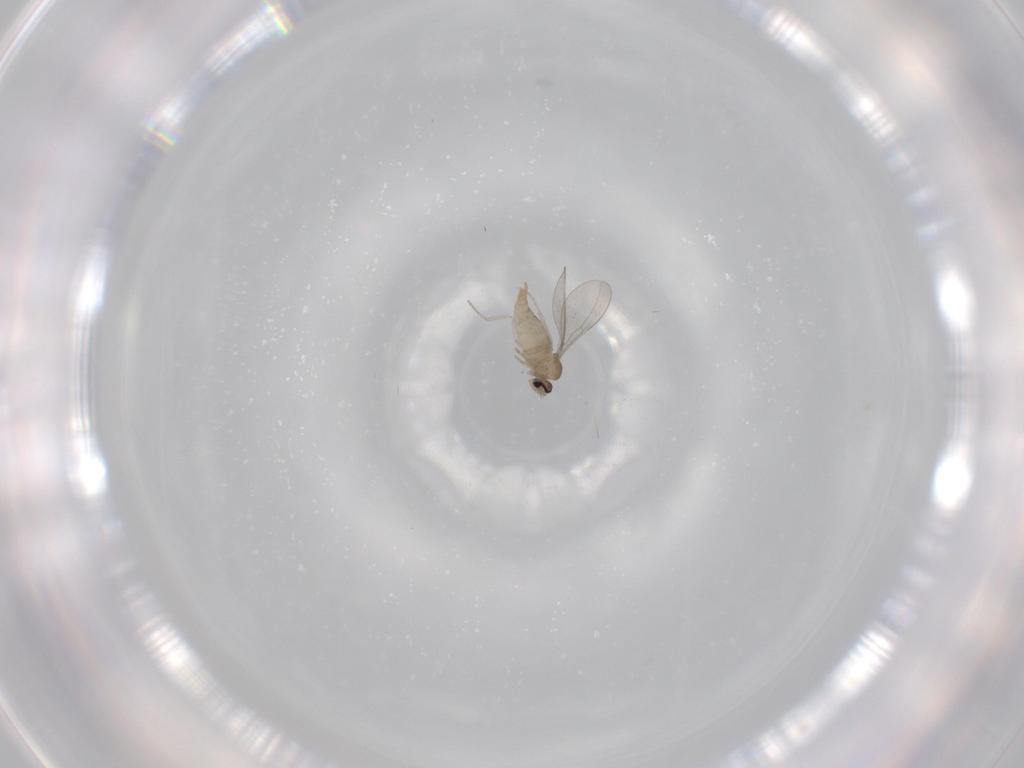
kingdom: Animalia
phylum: Arthropoda
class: Insecta
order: Diptera
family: Cecidomyiidae
